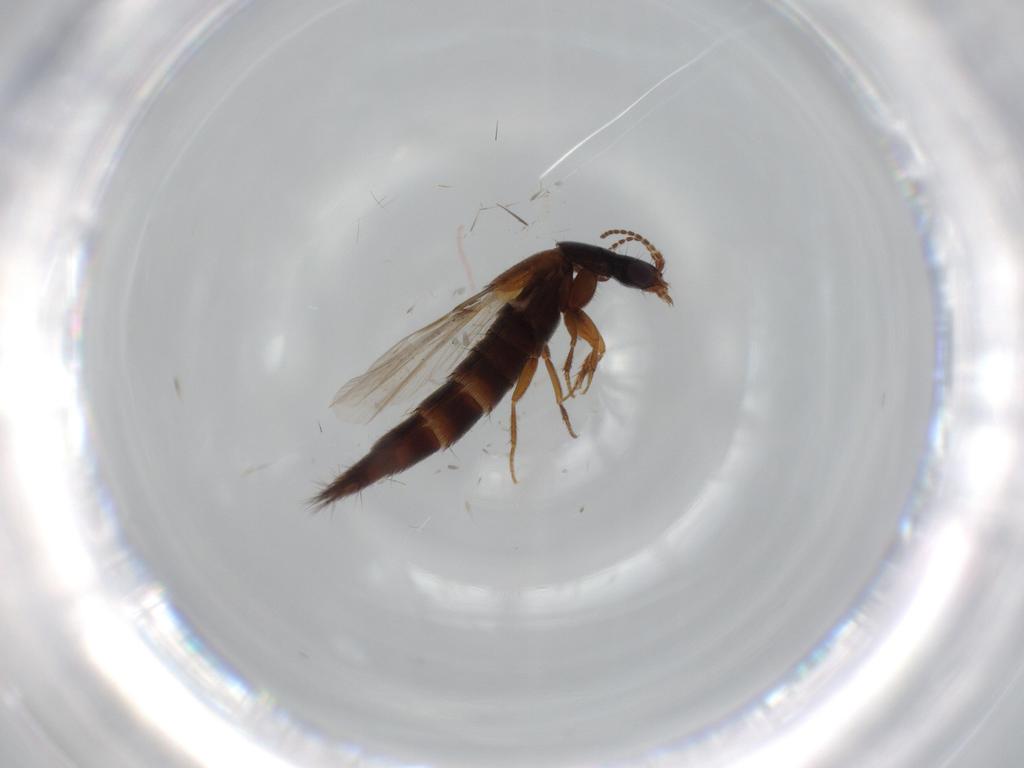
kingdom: Animalia
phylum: Arthropoda
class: Insecta
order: Coleoptera
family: Staphylinidae
